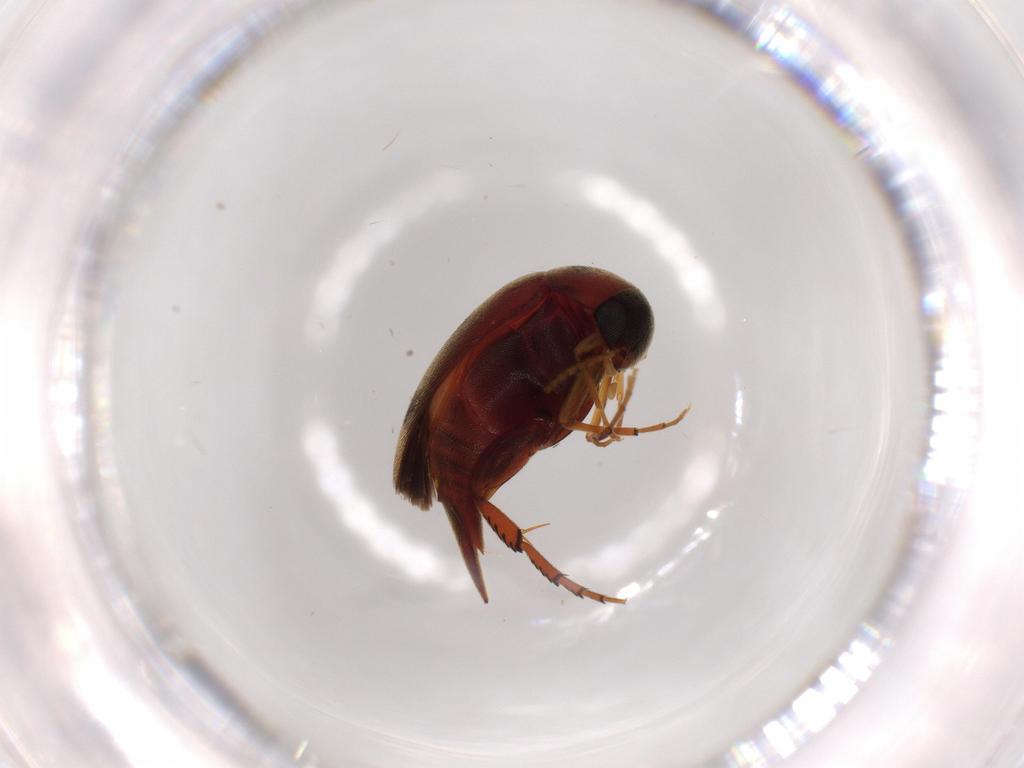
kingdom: Animalia
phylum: Arthropoda
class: Insecta
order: Coleoptera
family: Mordellidae
